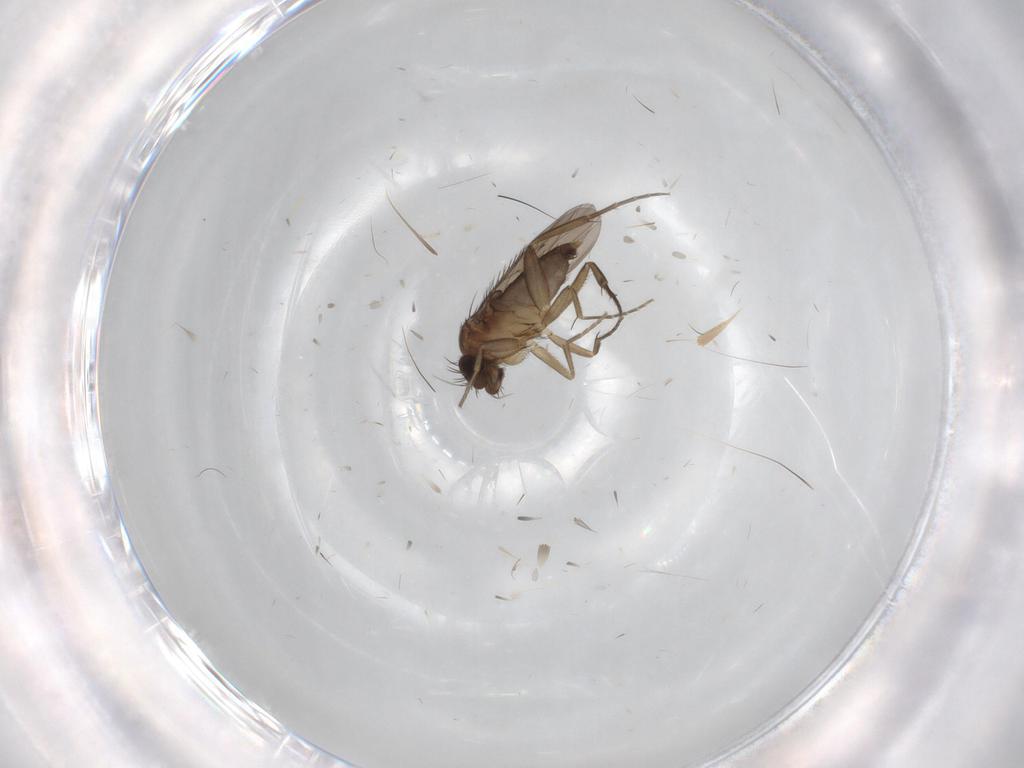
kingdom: Animalia
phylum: Arthropoda
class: Insecta
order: Diptera
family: Phoridae
